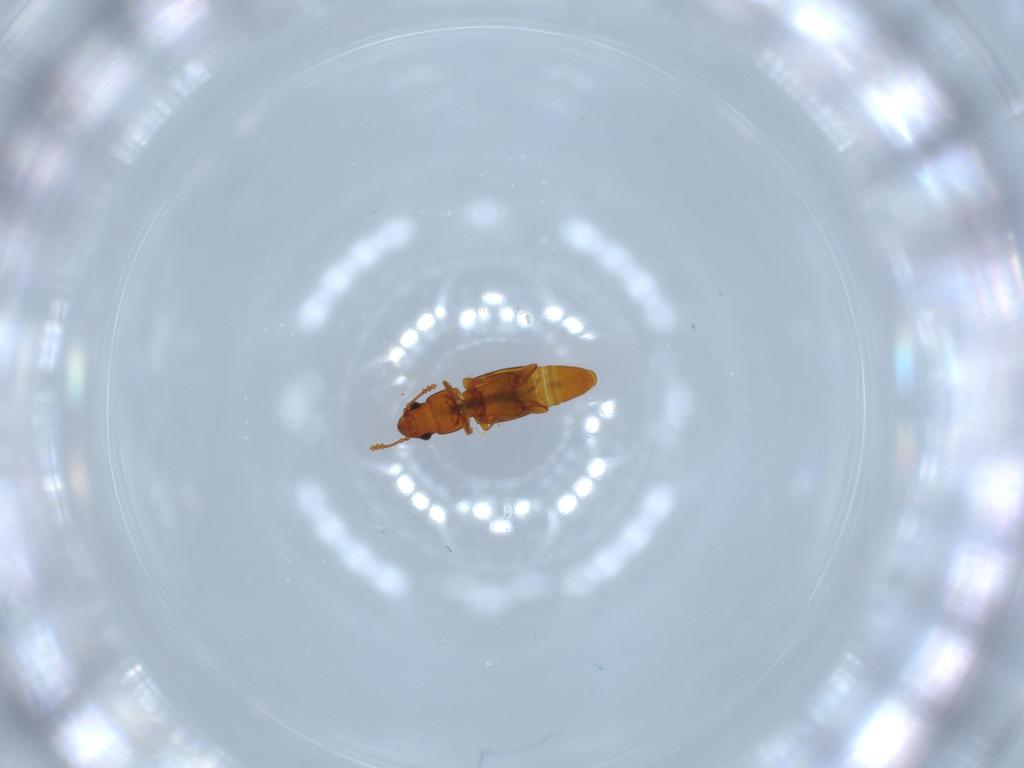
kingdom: Animalia
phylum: Arthropoda
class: Insecta
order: Coleoptera
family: Smicripidae
